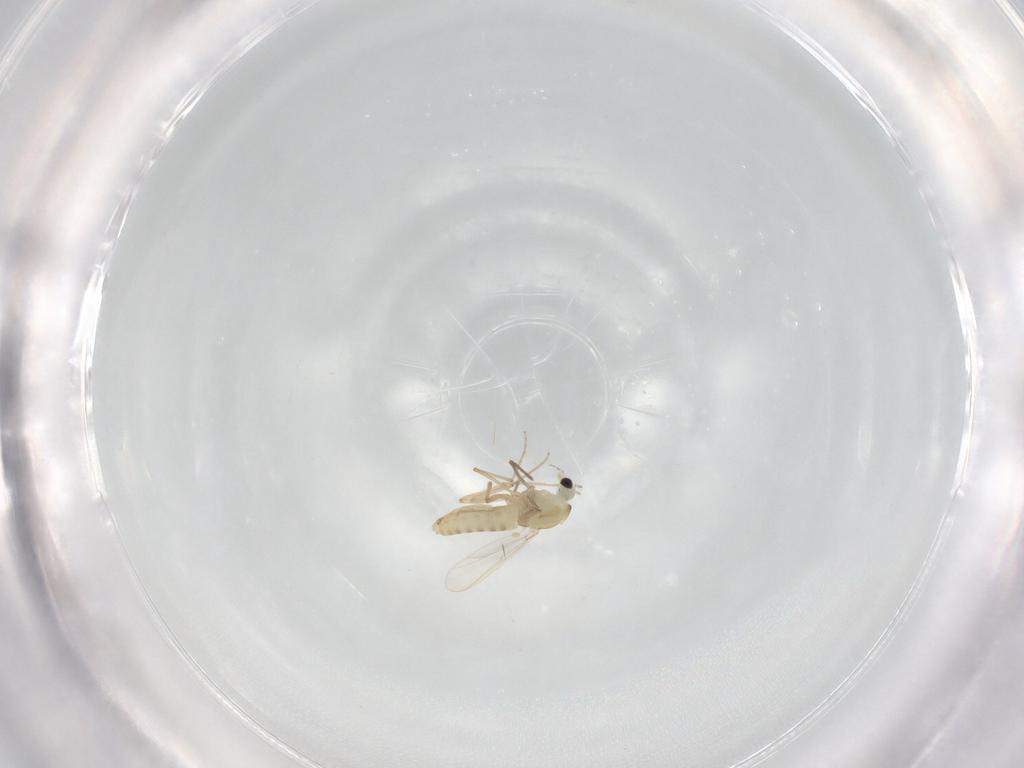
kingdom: Animalia
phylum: Arthropoda
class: Insecta
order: Diptera
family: Chironomidae
